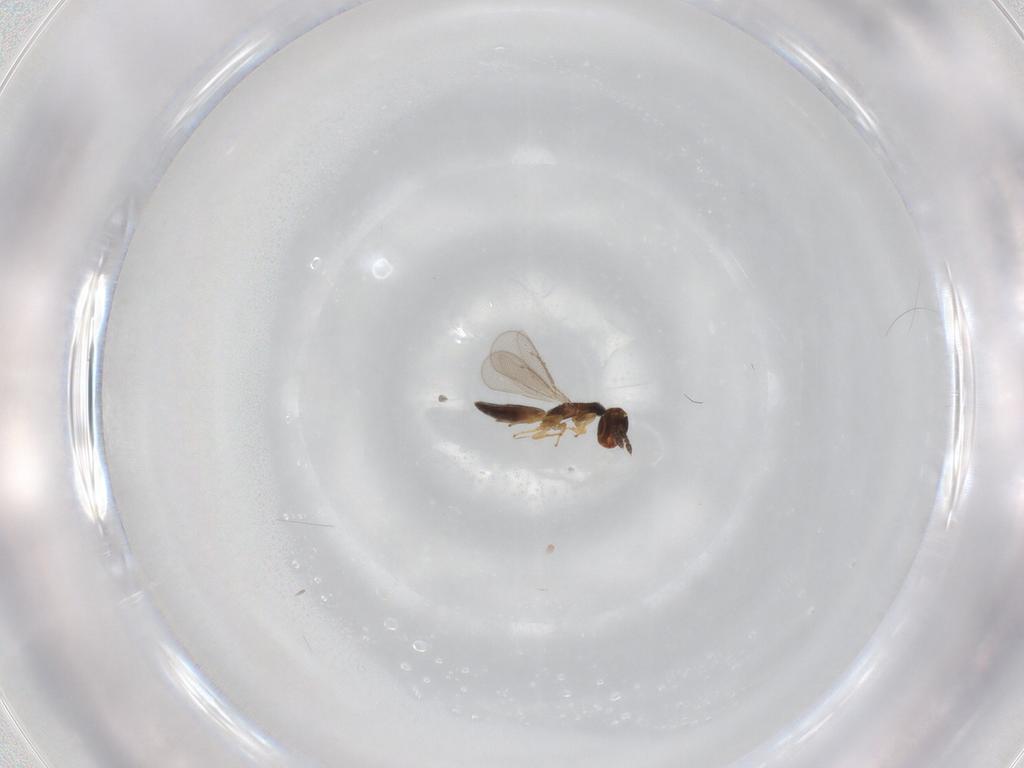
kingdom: Animalia
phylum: Arthropoda
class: Insecta
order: Hymenoptera
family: Eulophidae
